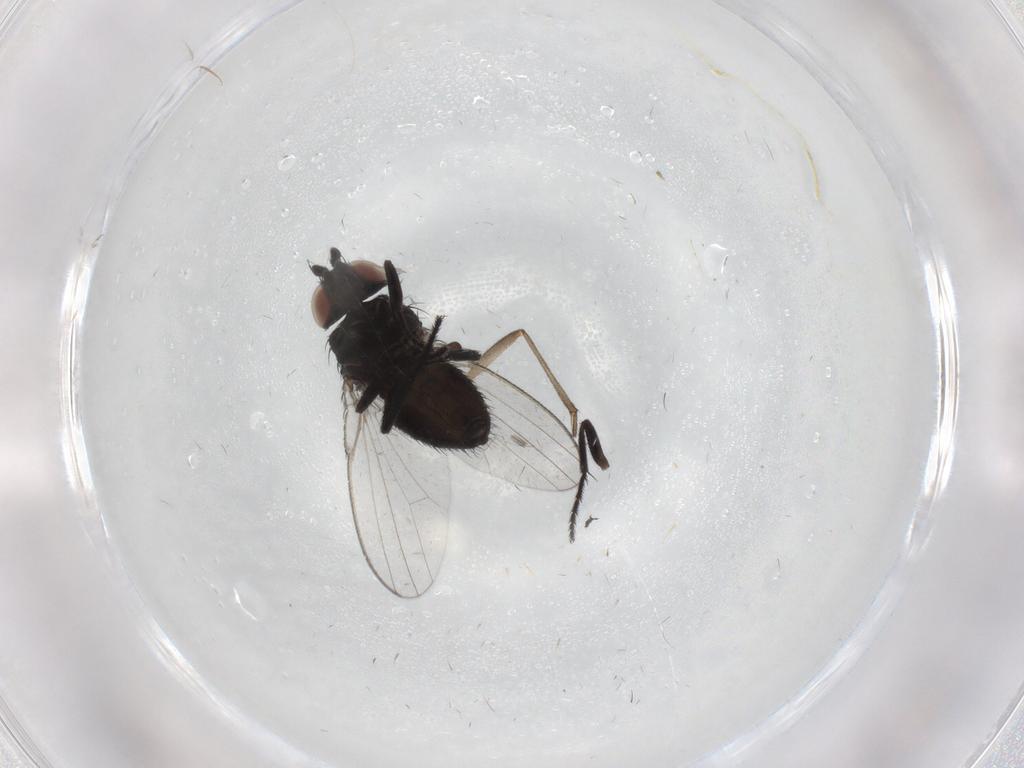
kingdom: Animalia
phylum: Arthropoda
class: Insecta
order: Diptera
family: Milichiidae
